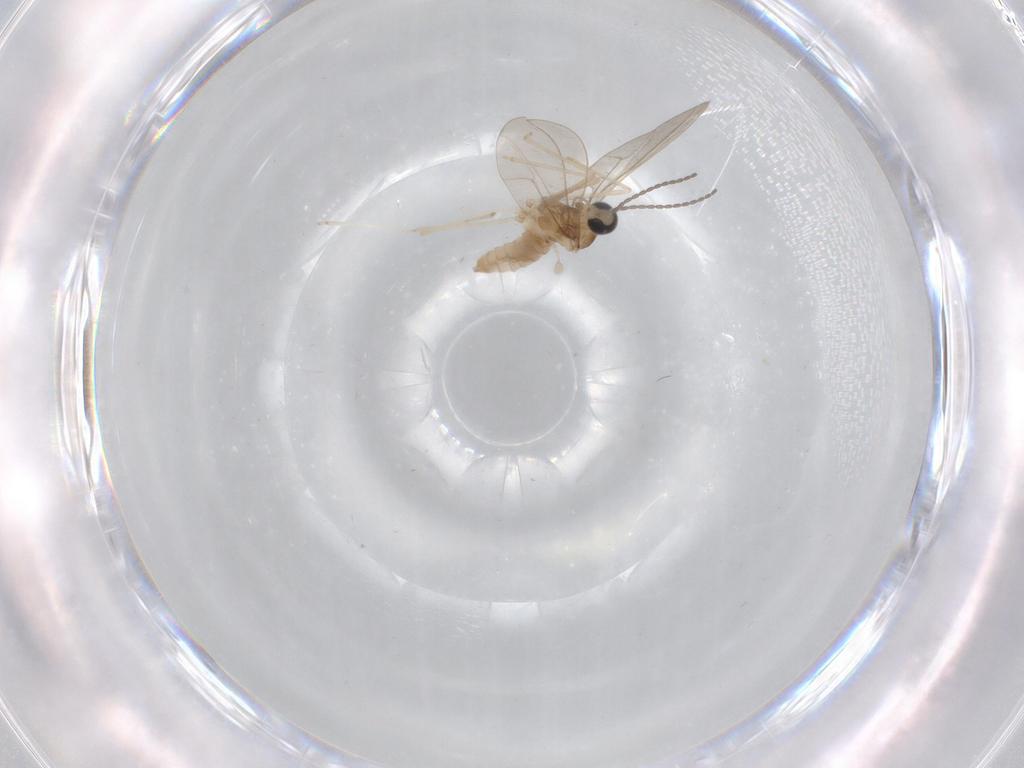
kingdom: Animalia
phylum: Arthropoda
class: Insecta
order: Diptera
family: Cecidomyiidae
